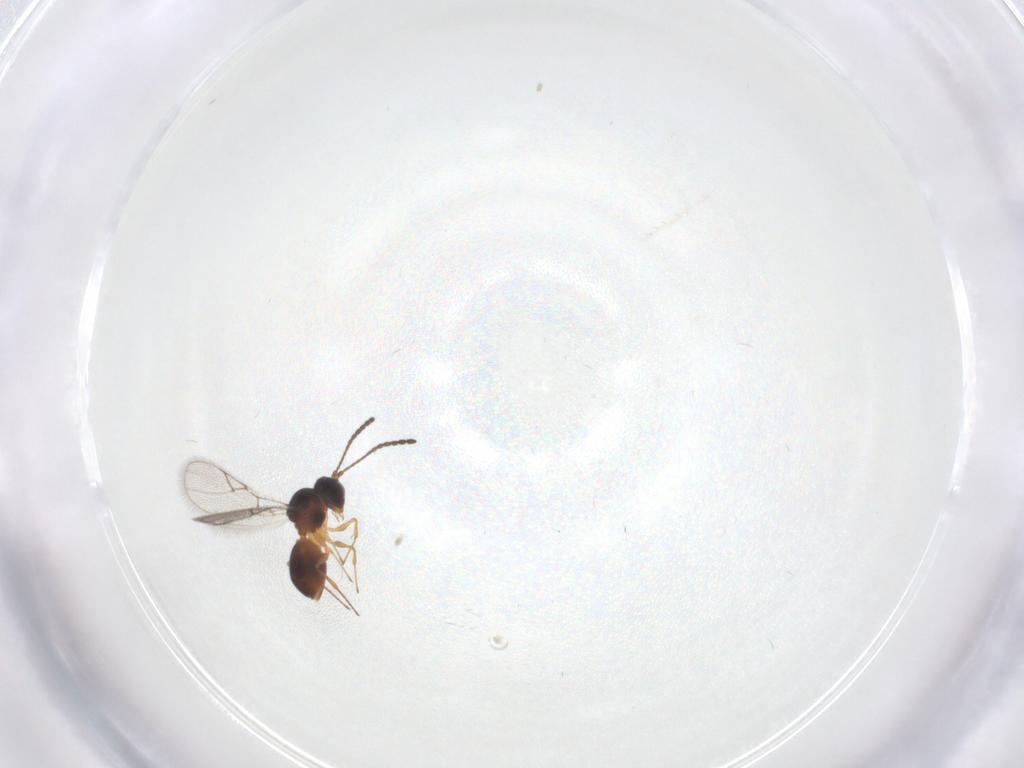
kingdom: Animalia
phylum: Arthropoda
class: Insecta
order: Hymenoptera
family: Figitidae
